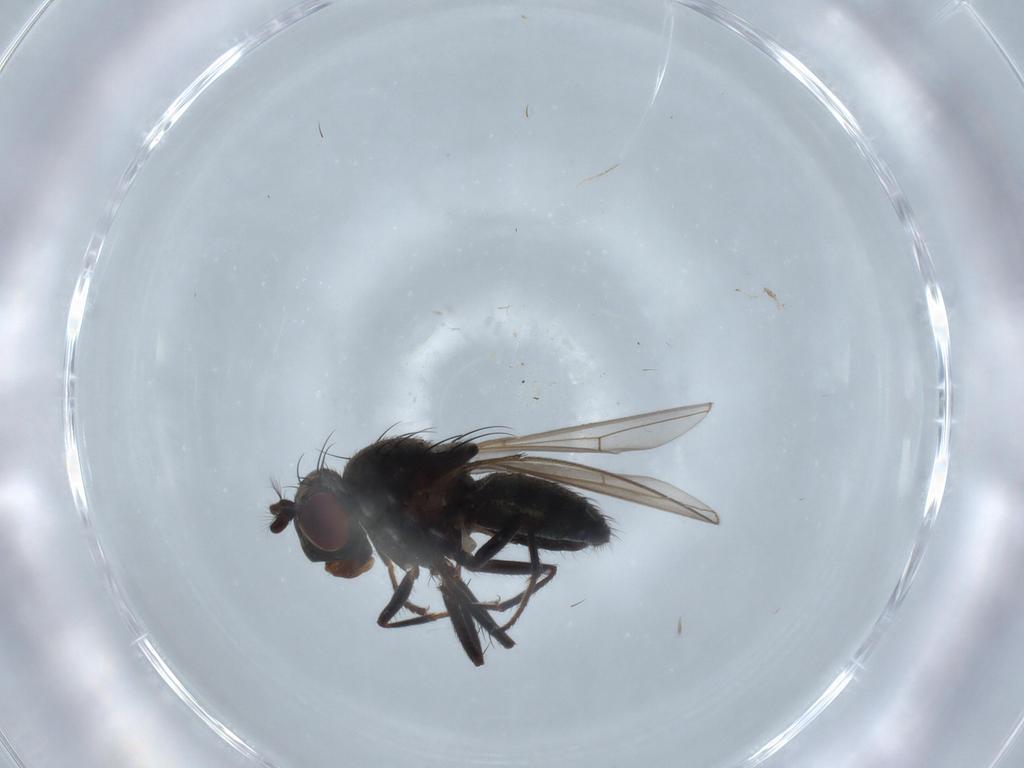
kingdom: Animalia
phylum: Arthropoda
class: Insecta
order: Diptera
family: Ephydridae
